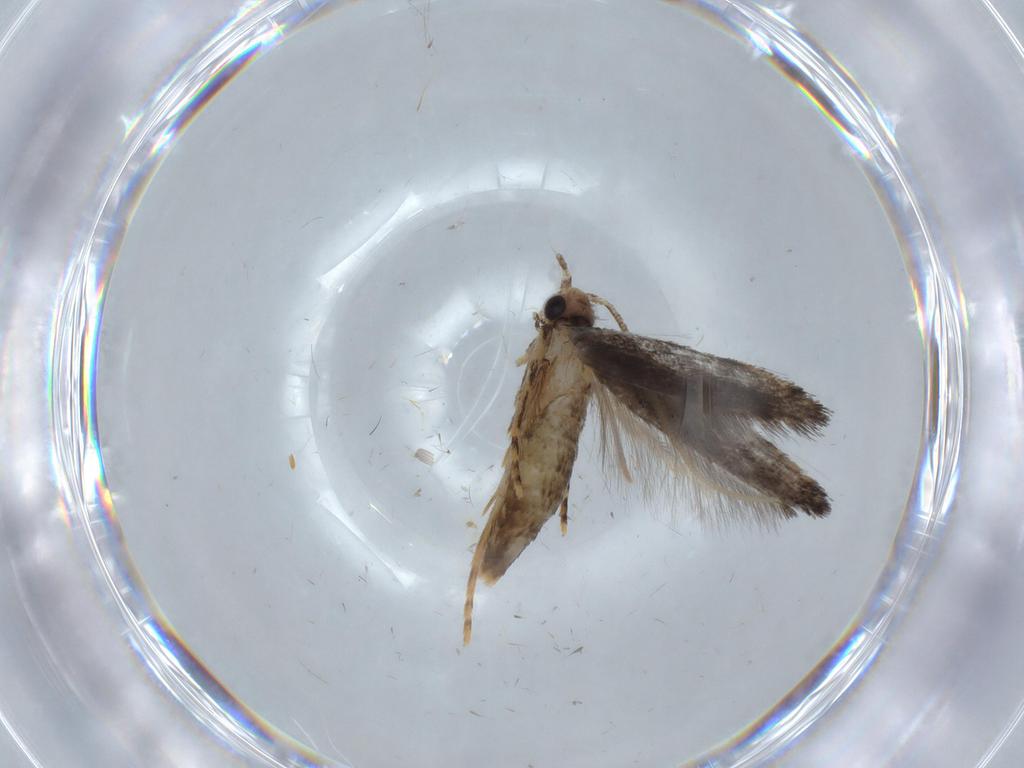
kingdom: Animalia
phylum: Arthropoda
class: Insecta
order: Lepidoptera
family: Tineidae
